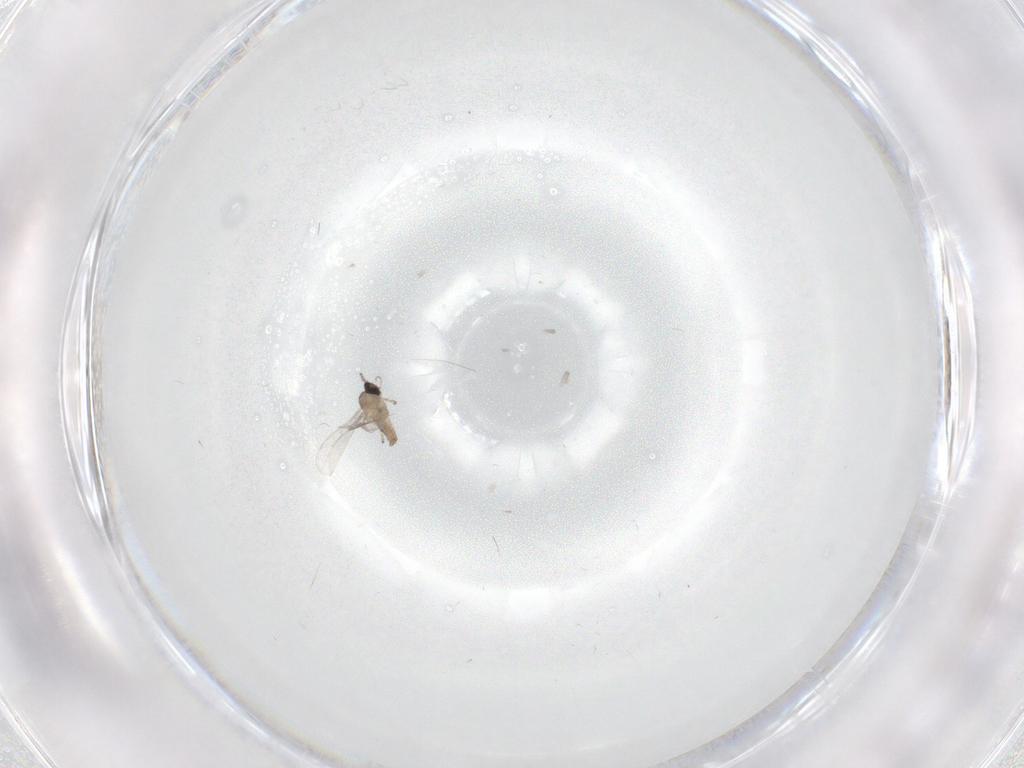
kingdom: Animalia
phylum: Arthropoda
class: Insecta
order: Diptera
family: Cecidomyiidae
